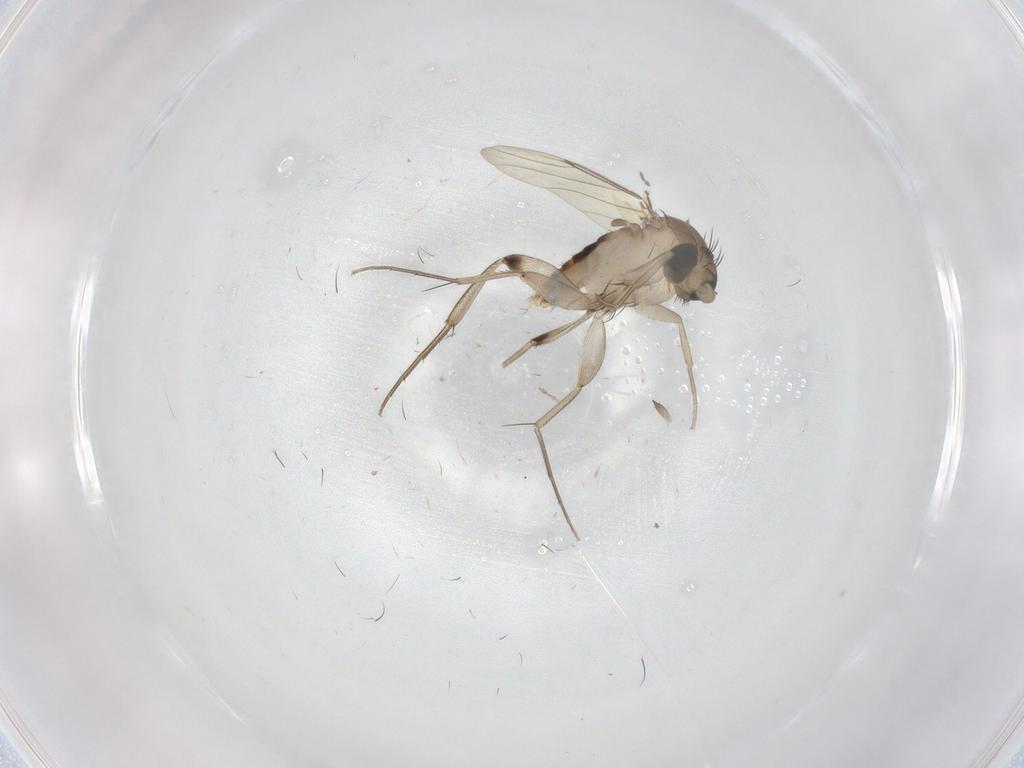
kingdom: Animalia
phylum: Arthropoda
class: Insecta
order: Diptera
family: Phoridae
